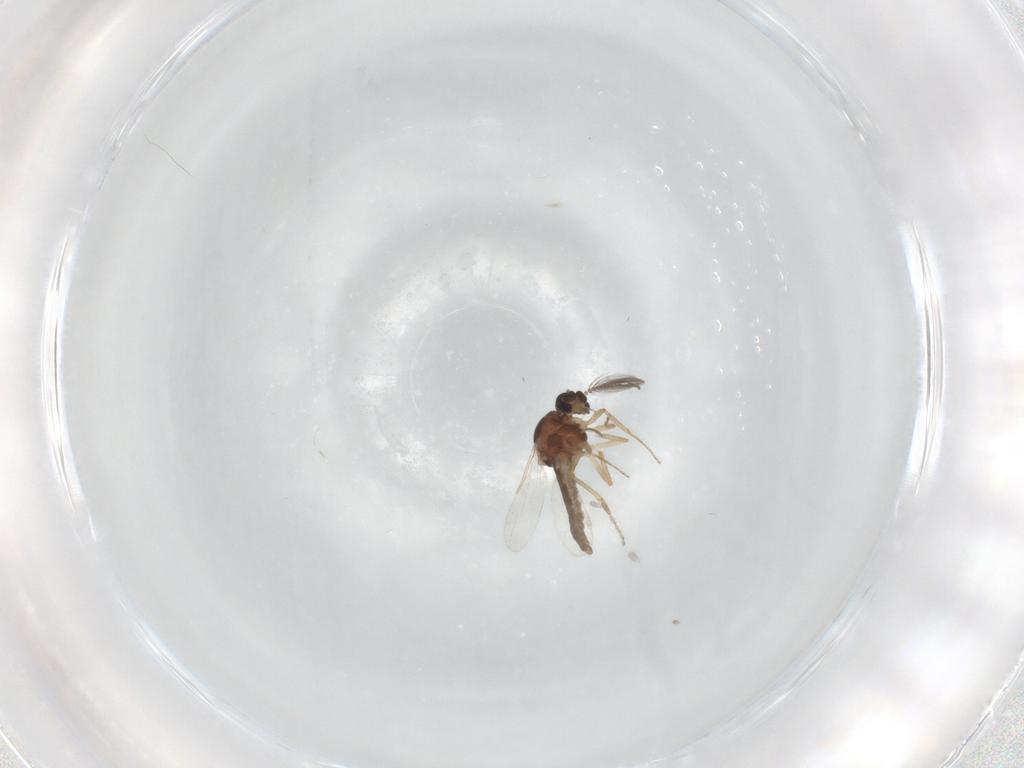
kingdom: Animalia
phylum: Arthropoda
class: Insecta
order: Diptera
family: Ceratopogonidae
